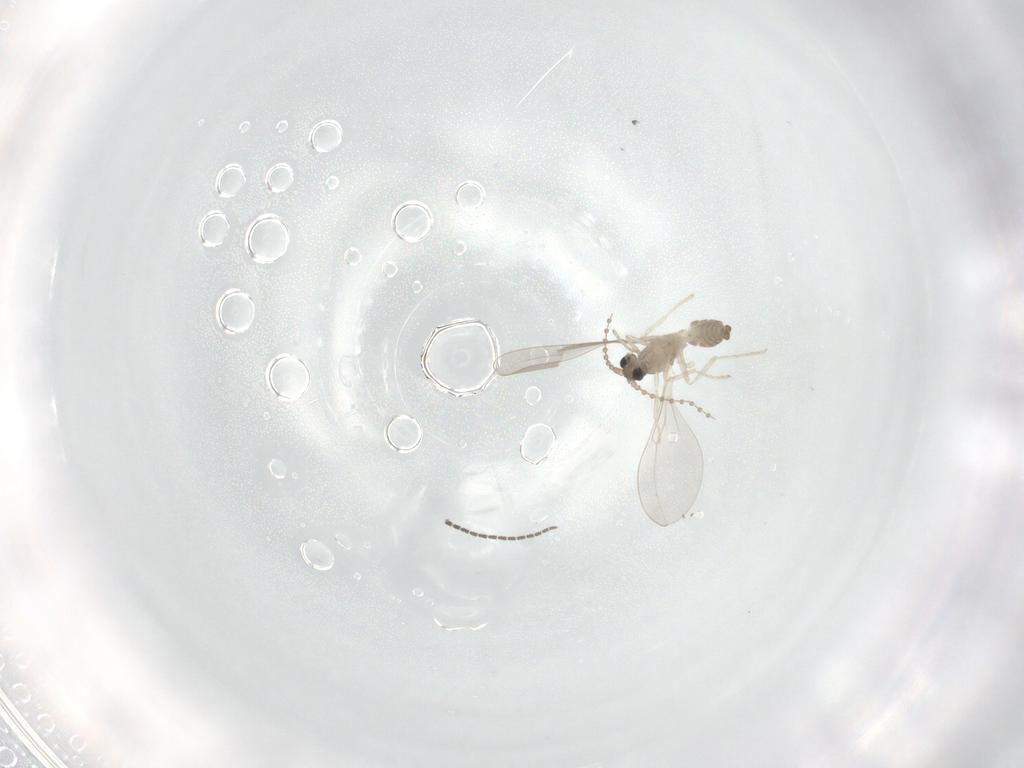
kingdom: Animalia
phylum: Arthropoda
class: Insecta
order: Diptera
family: Cecidomyiidae
